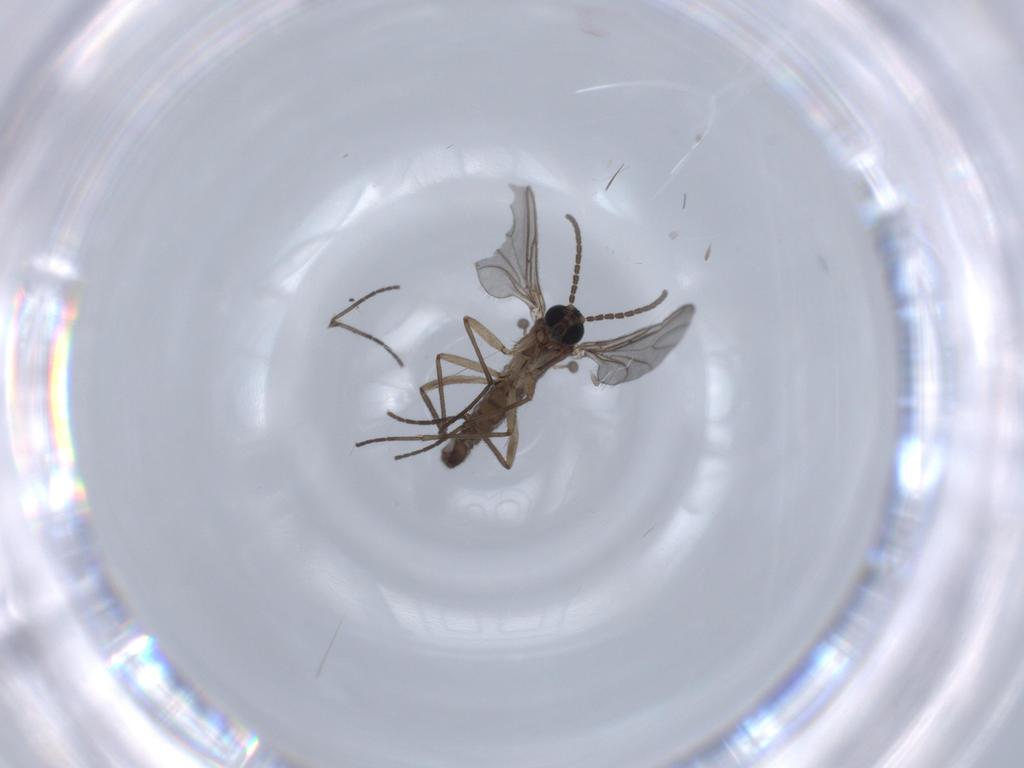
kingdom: Animalia
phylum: Arthropoda
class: Insecta
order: Diptera
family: Sciaridae
